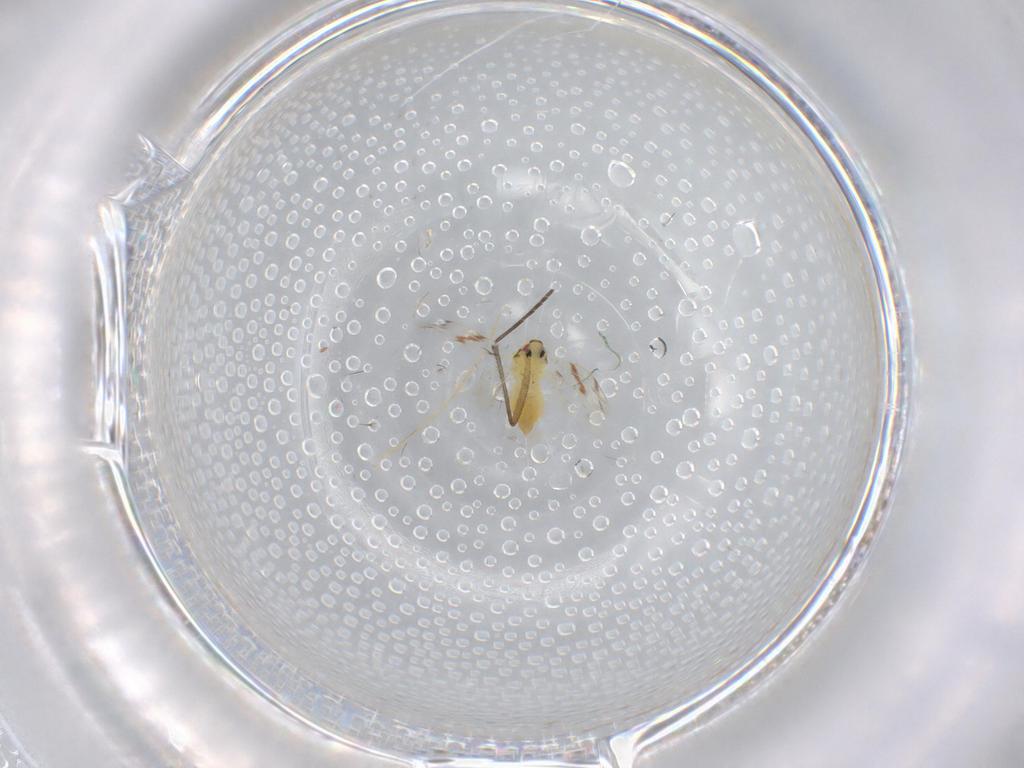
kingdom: Animalia
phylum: Arthropoda
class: Insecta
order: Diptera
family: Sciaridae
